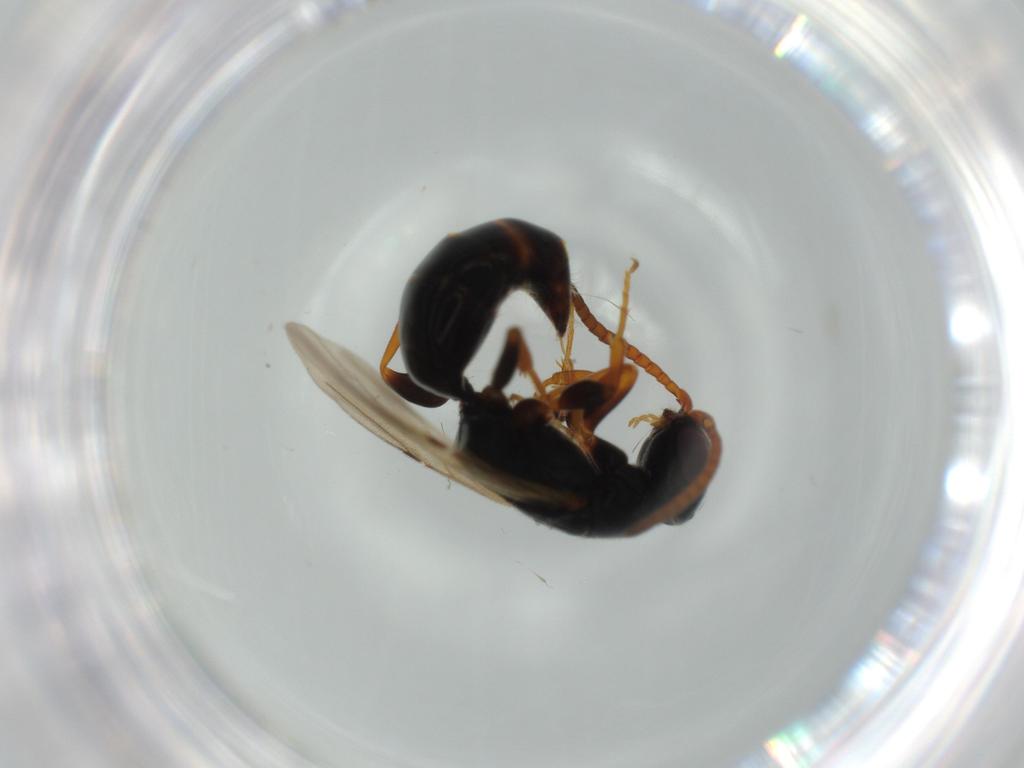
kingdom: Animalia
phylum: Arthropoda
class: Insecta
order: Hymenoptera
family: Bethylidae
